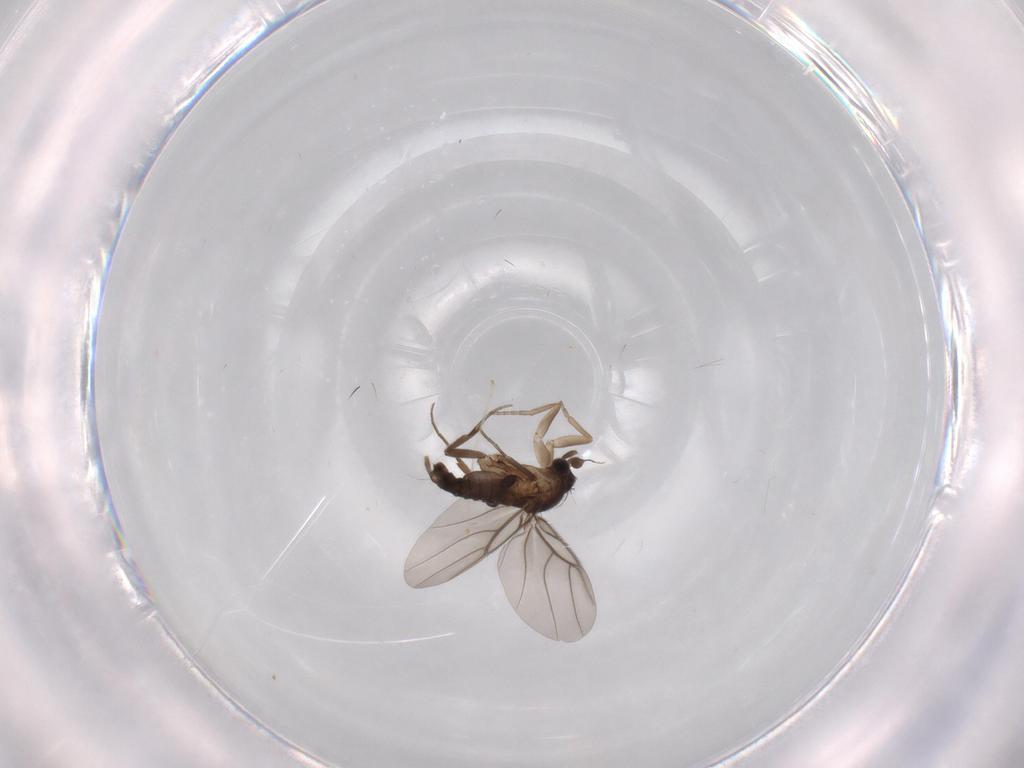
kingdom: Animalia
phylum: Arthropoda
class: Insecta
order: Diptera
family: Phoridae
